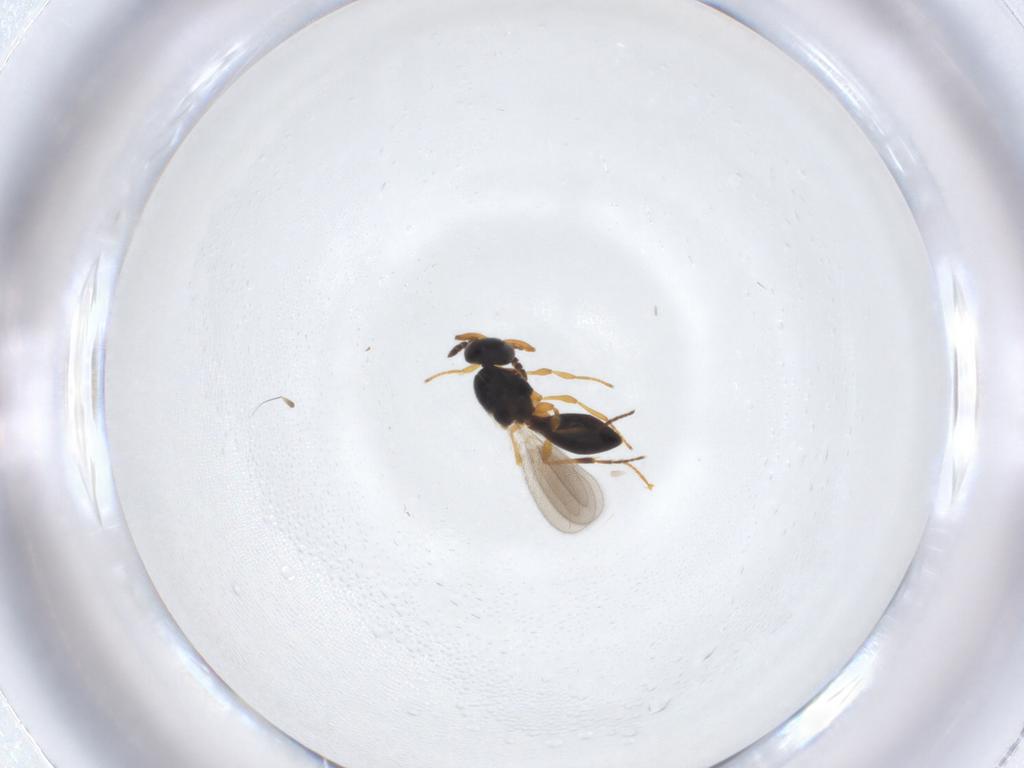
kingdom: Animalia
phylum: Arthropoda
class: Insecta
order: Hymenoptera
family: Platygastridae
